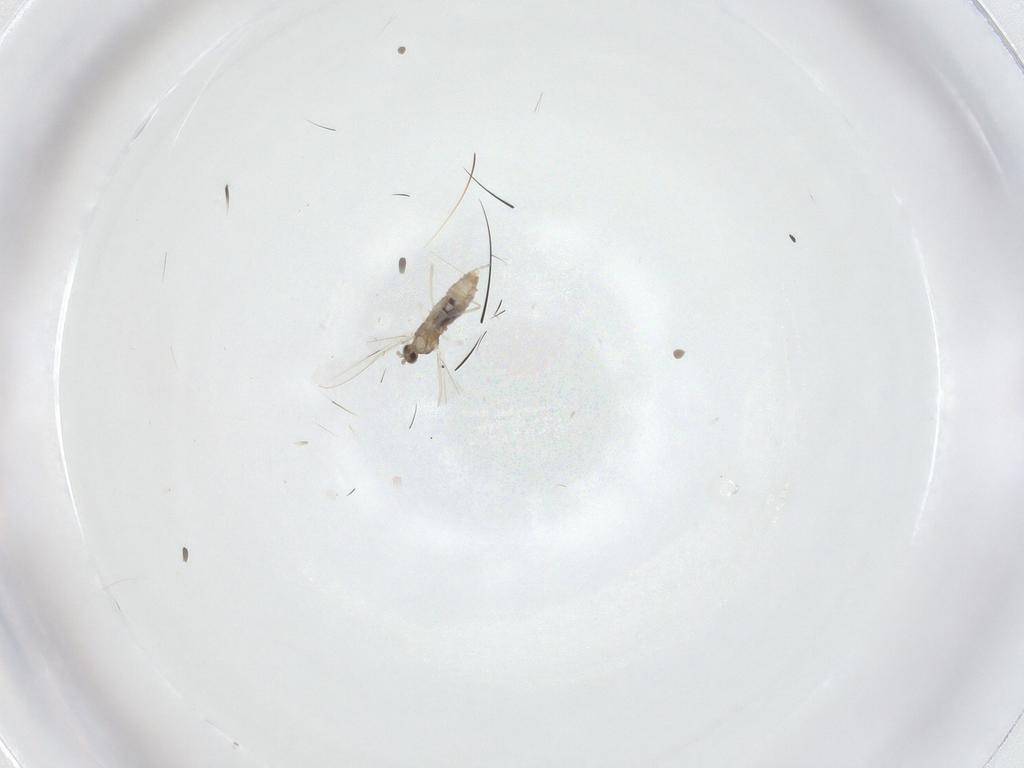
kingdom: Animalia
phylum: Arthropoda
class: Insecta
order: Diptera
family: Cecidomyiidae
